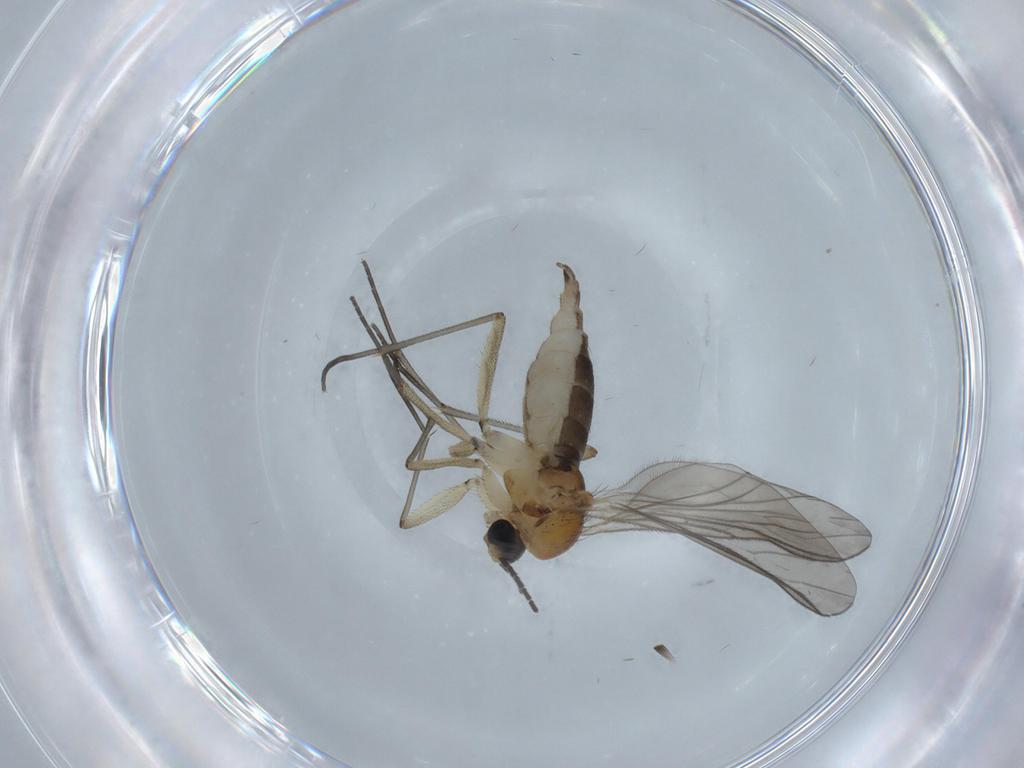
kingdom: Animalia
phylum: Arthropoda
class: Insecta
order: Diptera
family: Sciaridae
